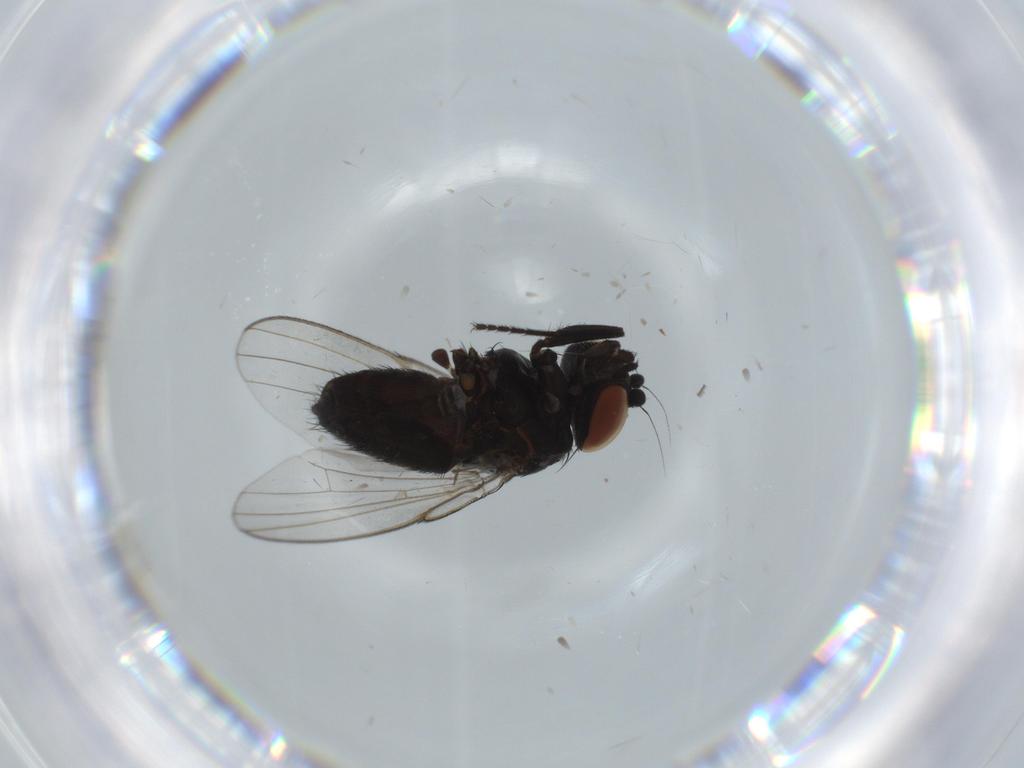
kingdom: Animalia
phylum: Arthropoda
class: Insecta
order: Diptera
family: Milichiidae
